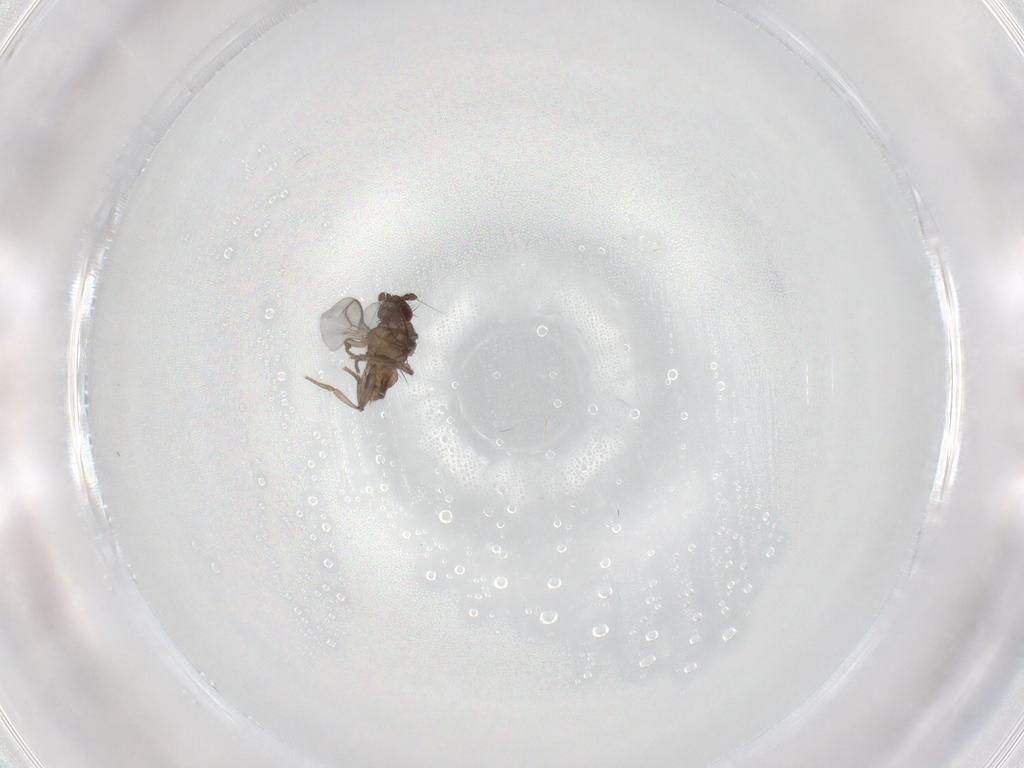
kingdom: Animalia
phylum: Arthropoda
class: Insecta
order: Diptera
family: Sphaeroceridae
